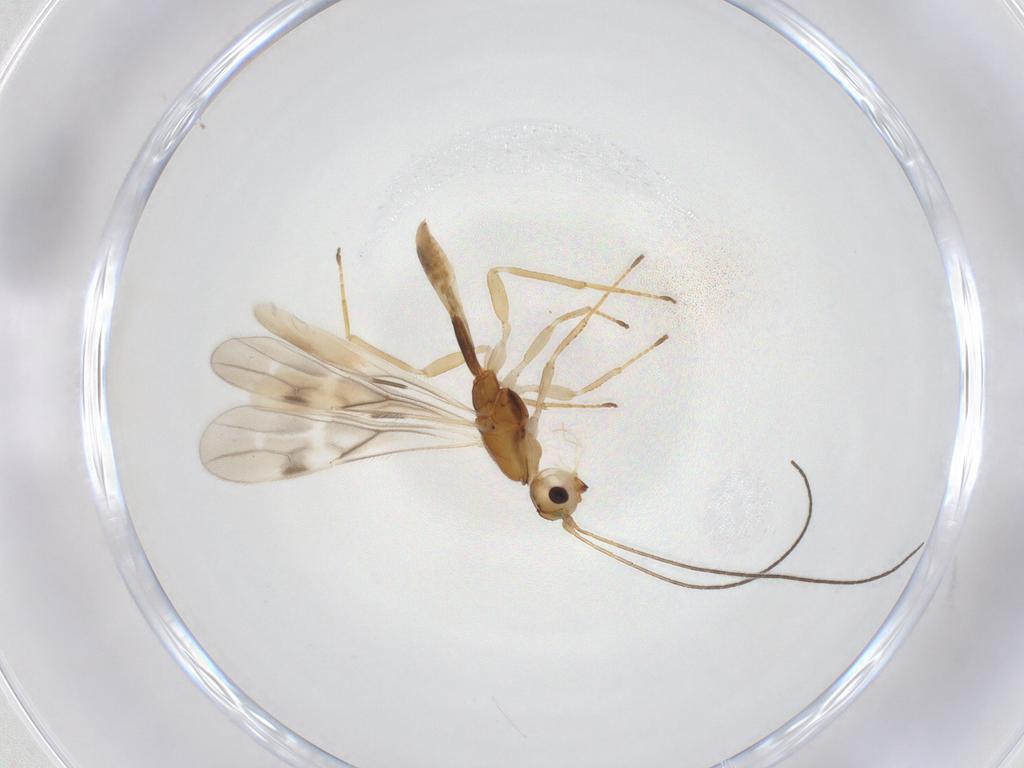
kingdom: Animalia
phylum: Arthropoda
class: Insecta
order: Hymenoptera
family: Braconidae
